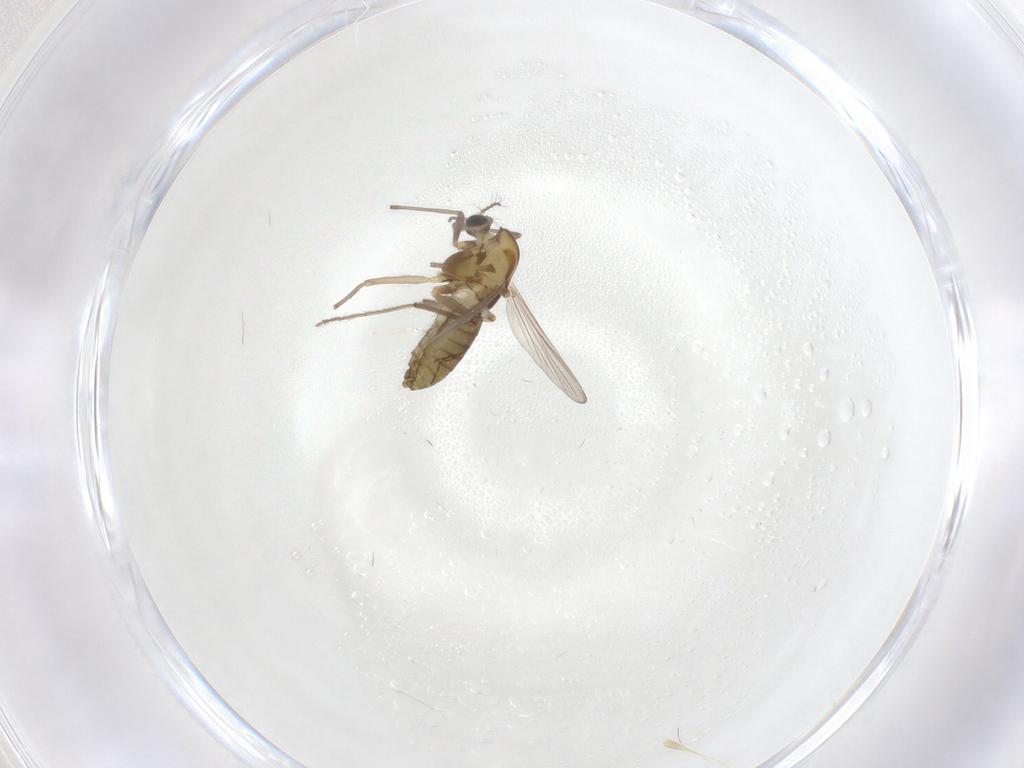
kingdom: Animalia
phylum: Arthropoda
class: Insecta
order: Diptera
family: Chironomidae
